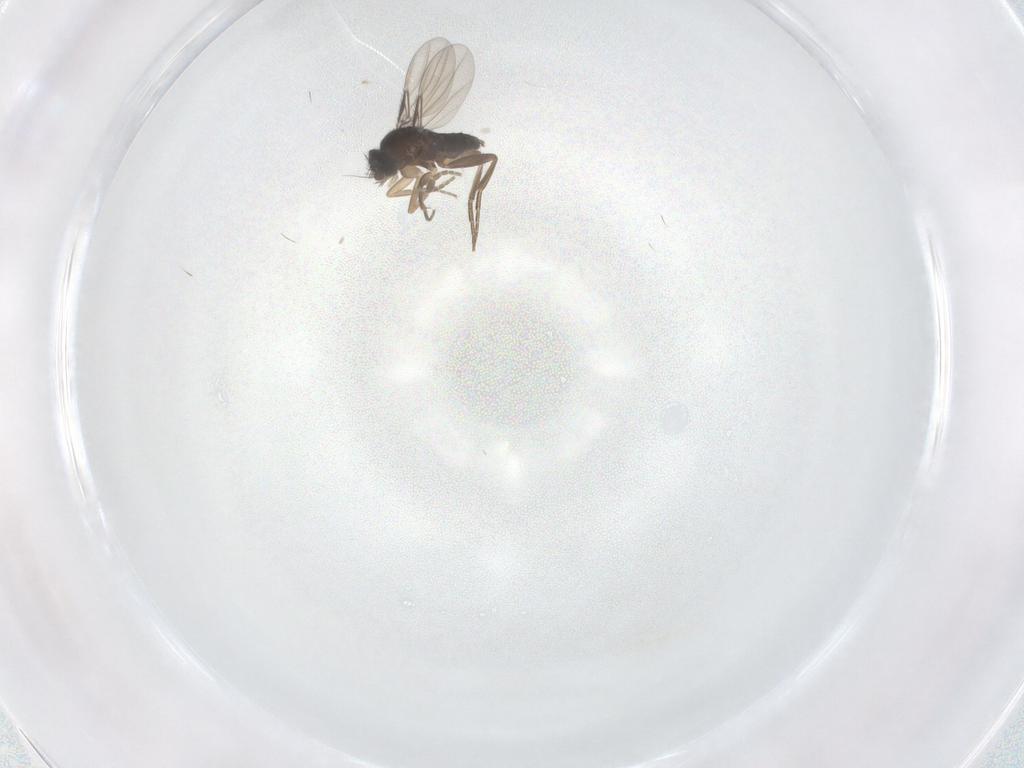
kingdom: Animalia
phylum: Arthropoda
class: Insecta
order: Diptera
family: Phoridae
